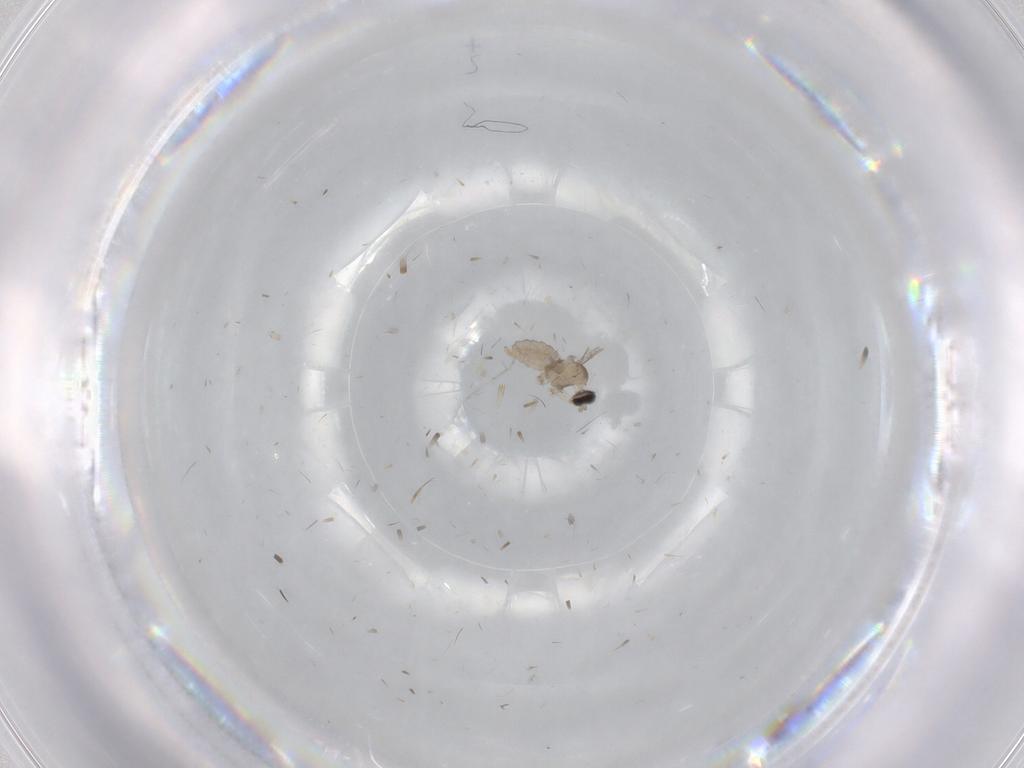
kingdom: Animalia
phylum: Arthropoda
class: Insecta
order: Diptera
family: Cecidomyiidae
